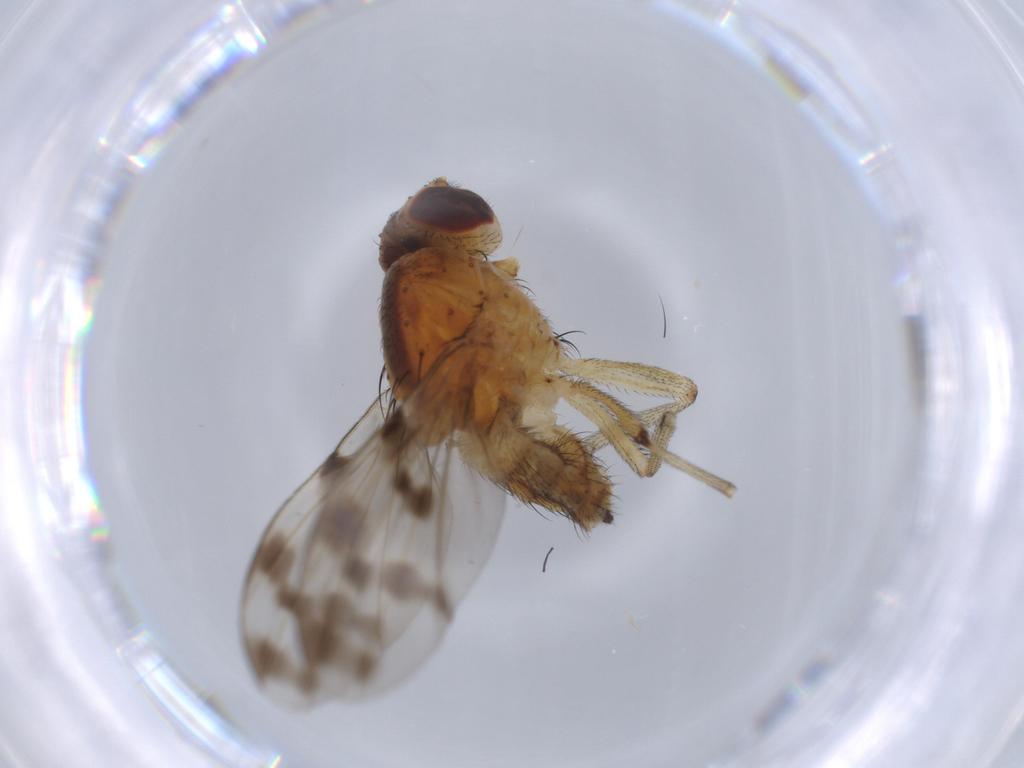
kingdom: Animalia
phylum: Arthropoda
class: Insecta
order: Diptera
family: Lauxaniidae
